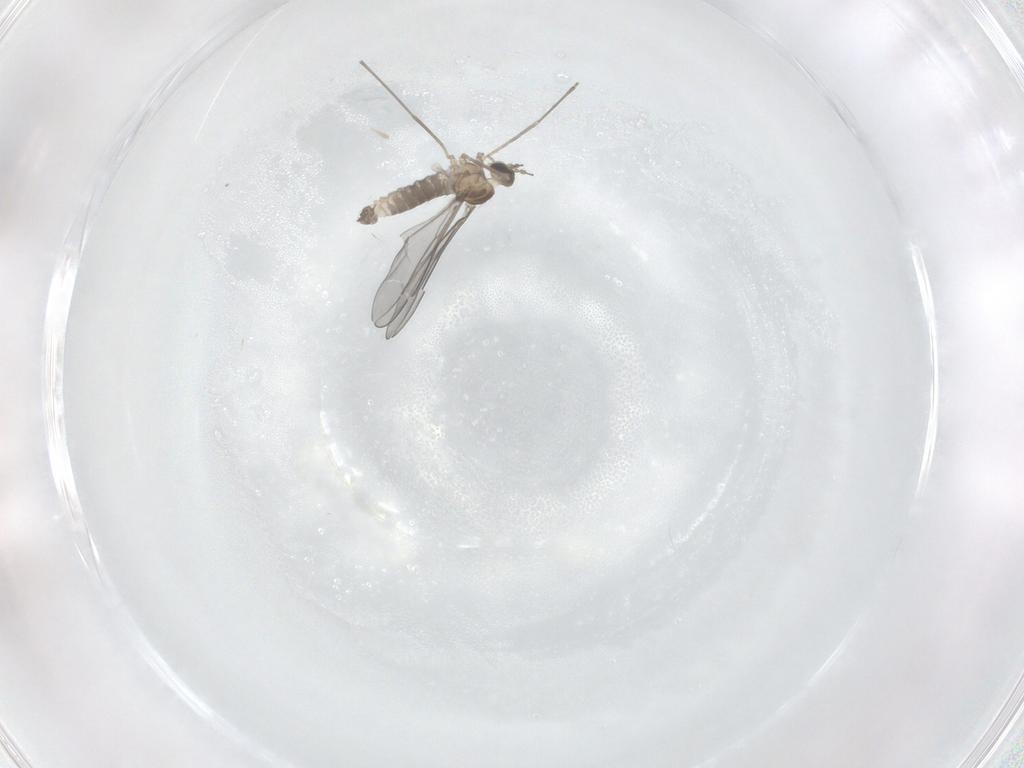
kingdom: Animalia
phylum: Arthropoda
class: Insecta
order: Diptera
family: Cecidomyiidae
